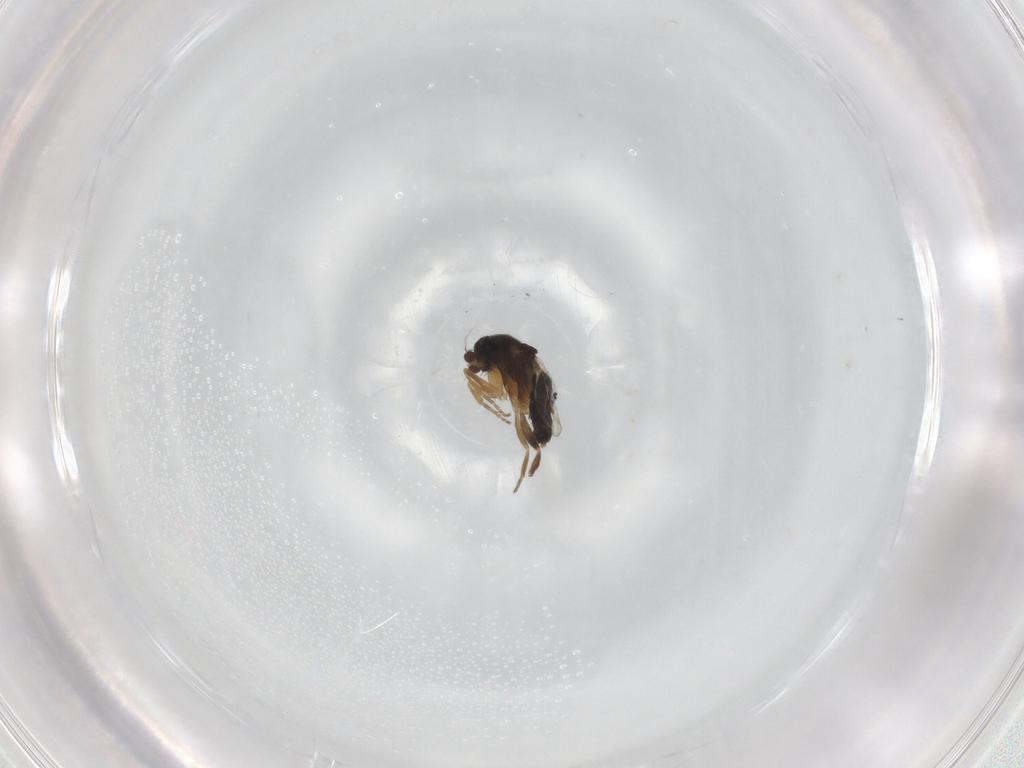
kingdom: Animalia
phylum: Arthropoda
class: Insecta
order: Diptera
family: Phoridae
